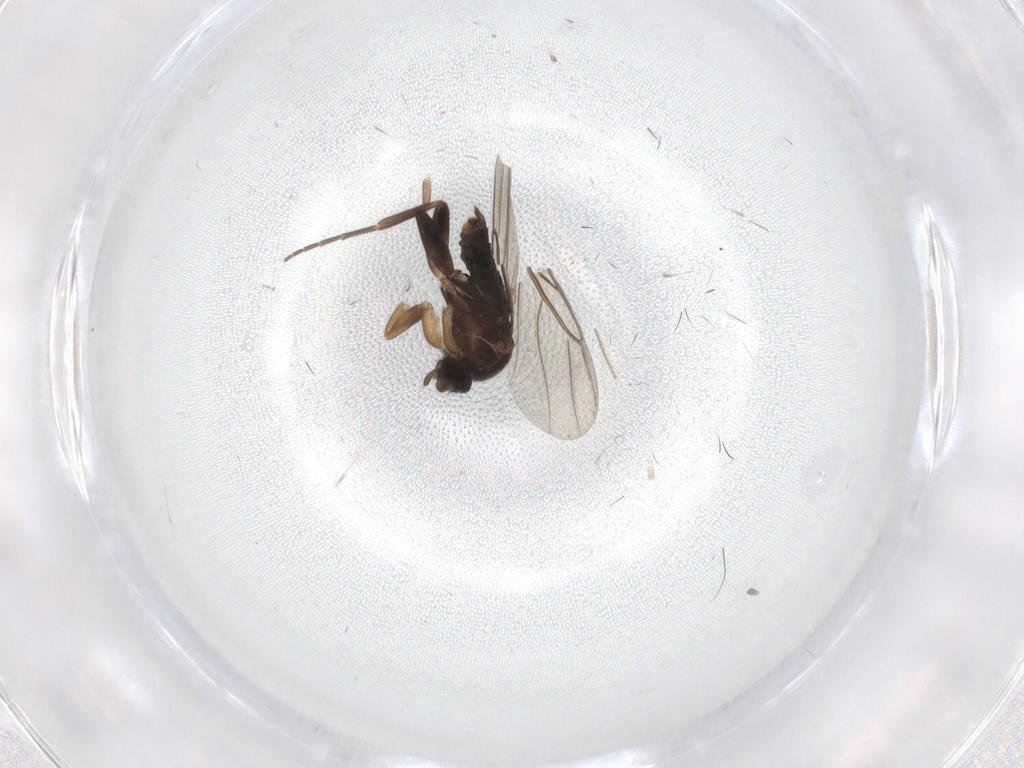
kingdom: Animalia
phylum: Arthropoda
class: Insecta
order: Diptera
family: Phoridae
